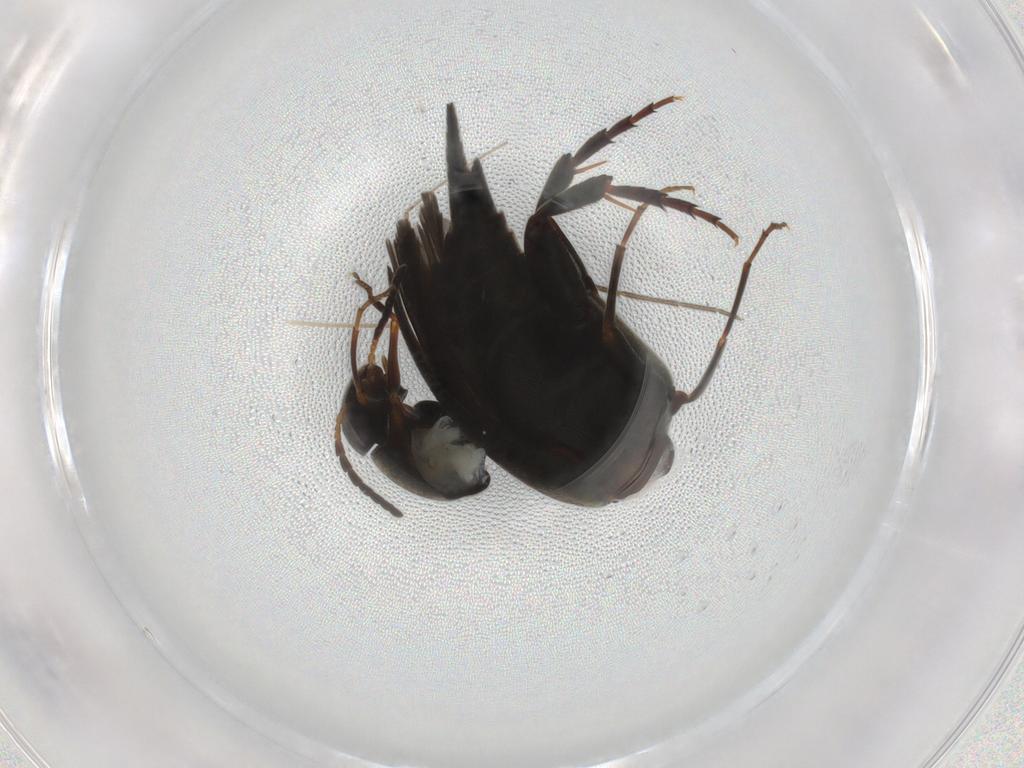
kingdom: Animalia
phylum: Arthropoda
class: Insecta
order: Coleoptera
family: Mordellidae
